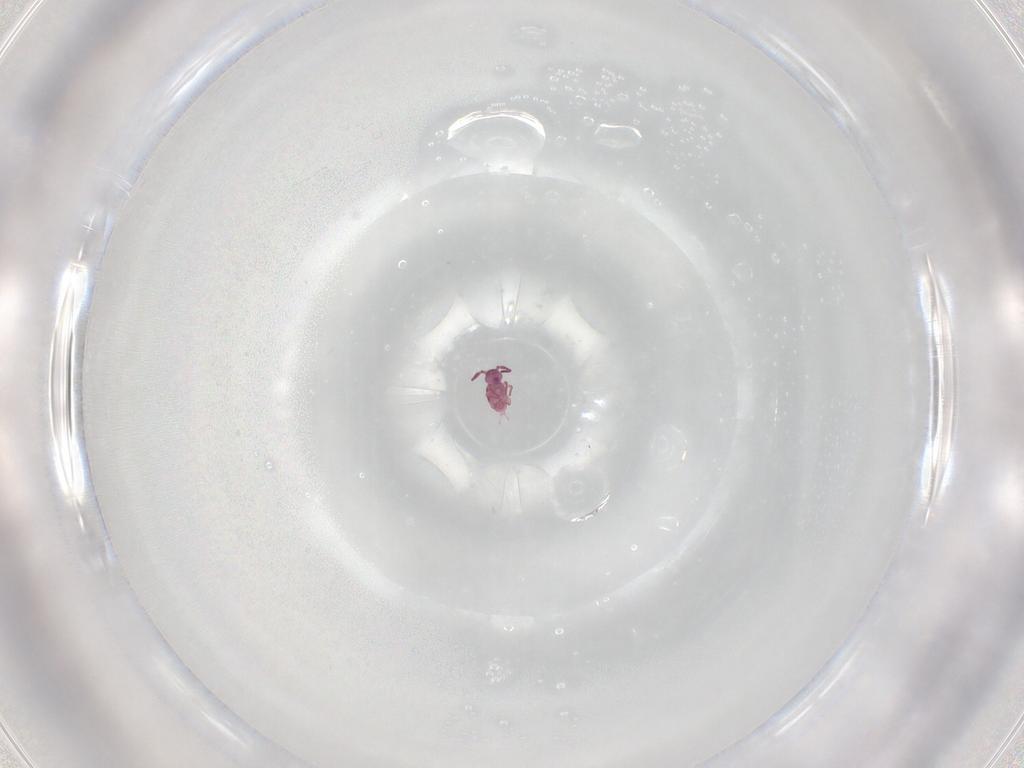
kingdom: Animalia
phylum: Arthropoda
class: Collembola
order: Symphypleona
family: Sminthurididae
